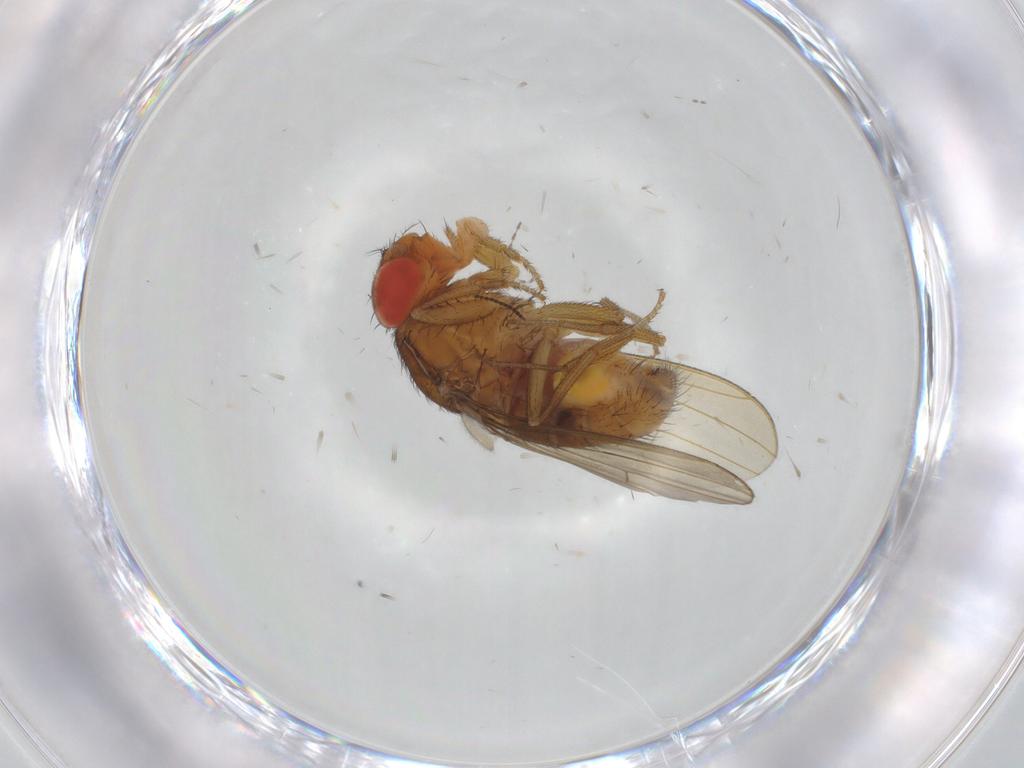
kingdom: Animalia
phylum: Arthropoda
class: Insecta
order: Diptera
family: Drosophilidae
